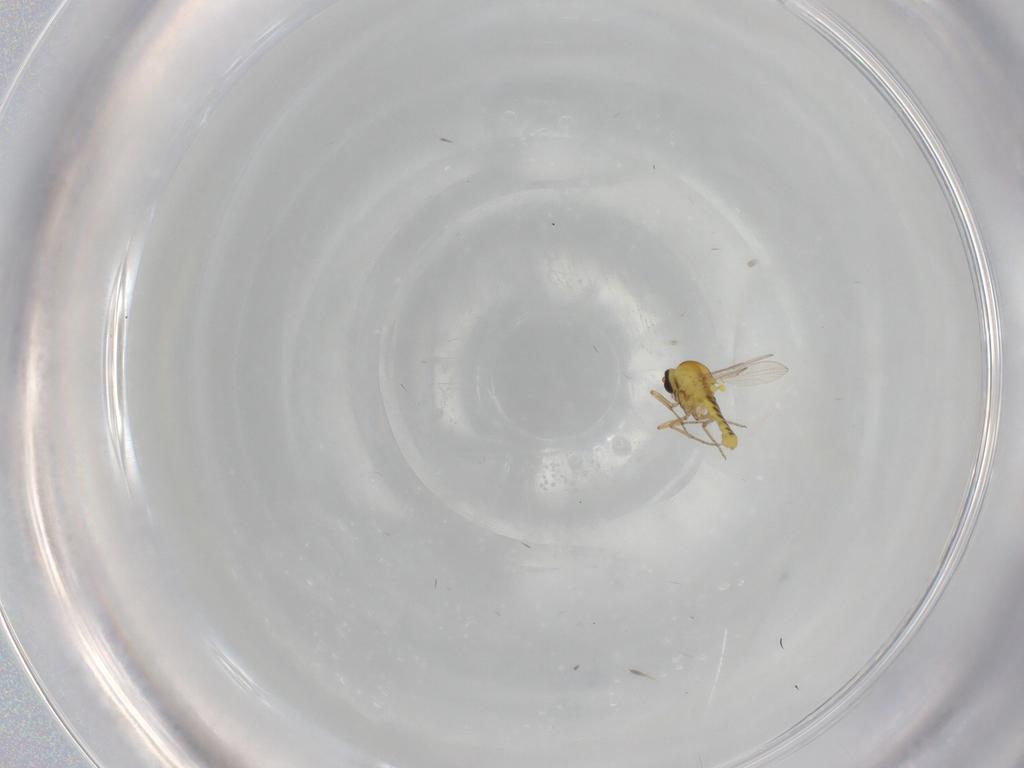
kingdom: Animalia
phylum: Arthropoda
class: Insecta
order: Diptera
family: Ceratopogonidae
